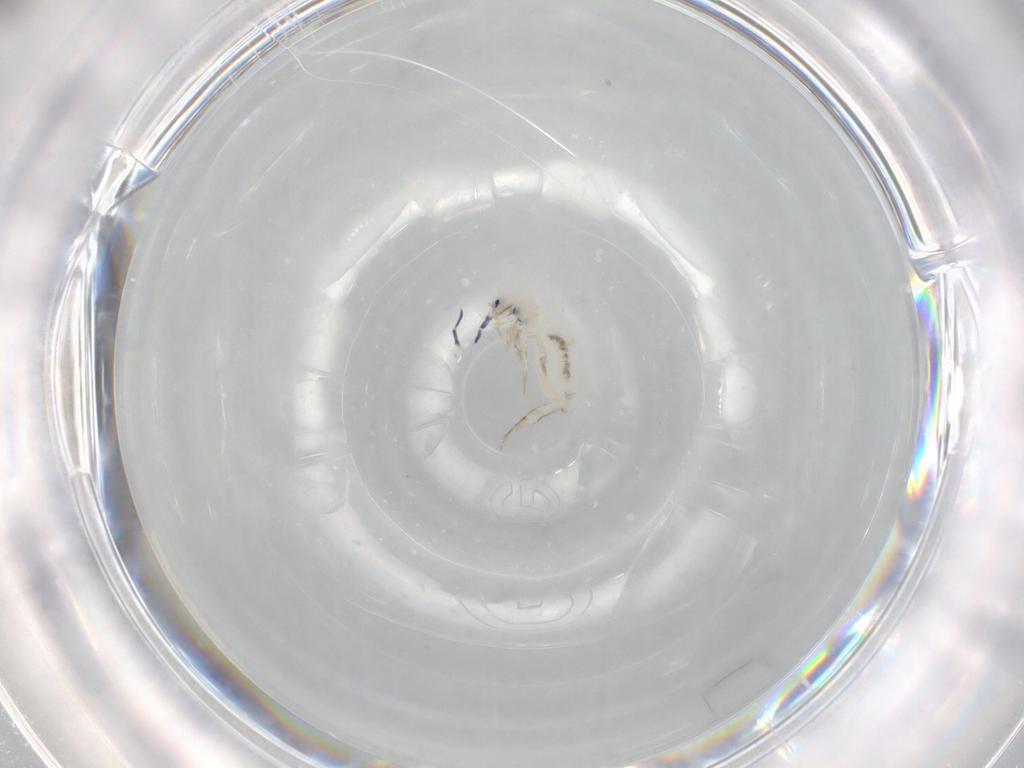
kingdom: Animalia
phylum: Arthropoda
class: Collembola
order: Entomobryomorpha
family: Entomobryidae
